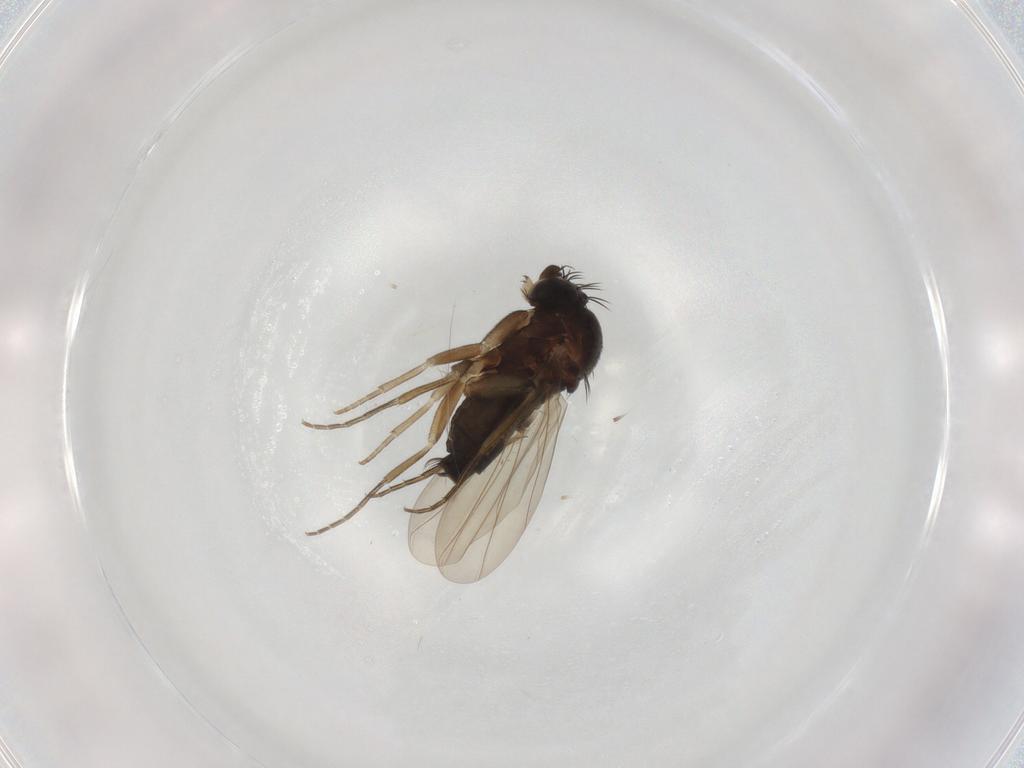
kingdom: Animalia
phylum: Arthropoda
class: Insecta
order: Diptera
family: Phoridae
